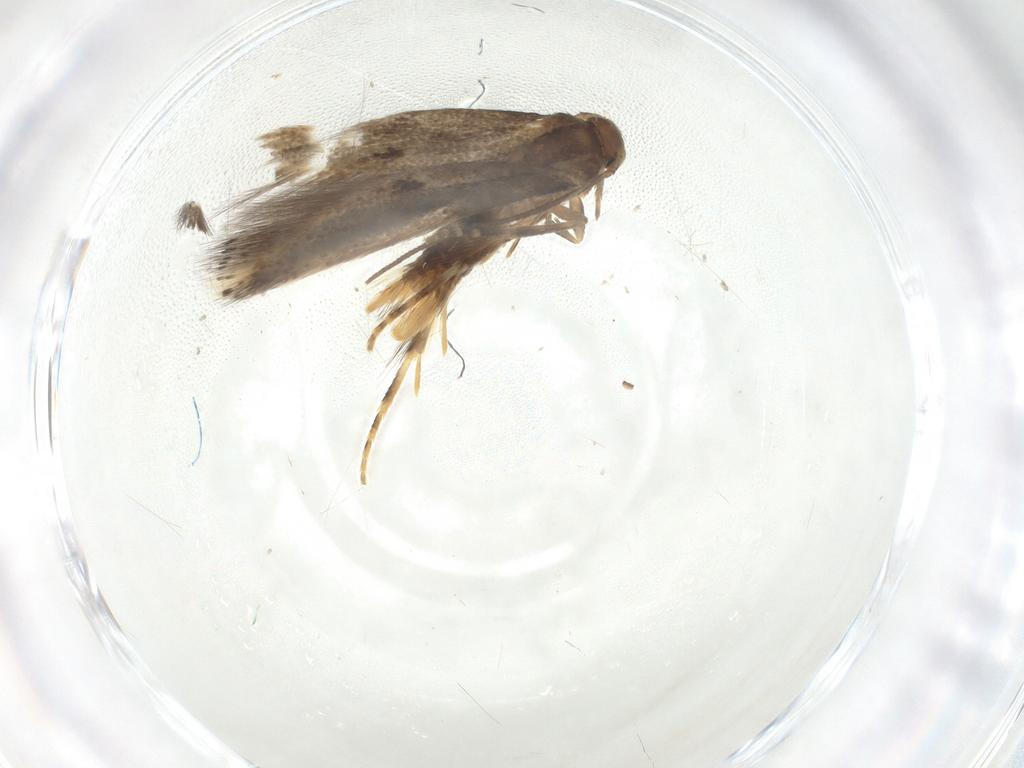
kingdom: Animalia
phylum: Arthropoda
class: Insecta
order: Lepidoptera
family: Elachistidae
